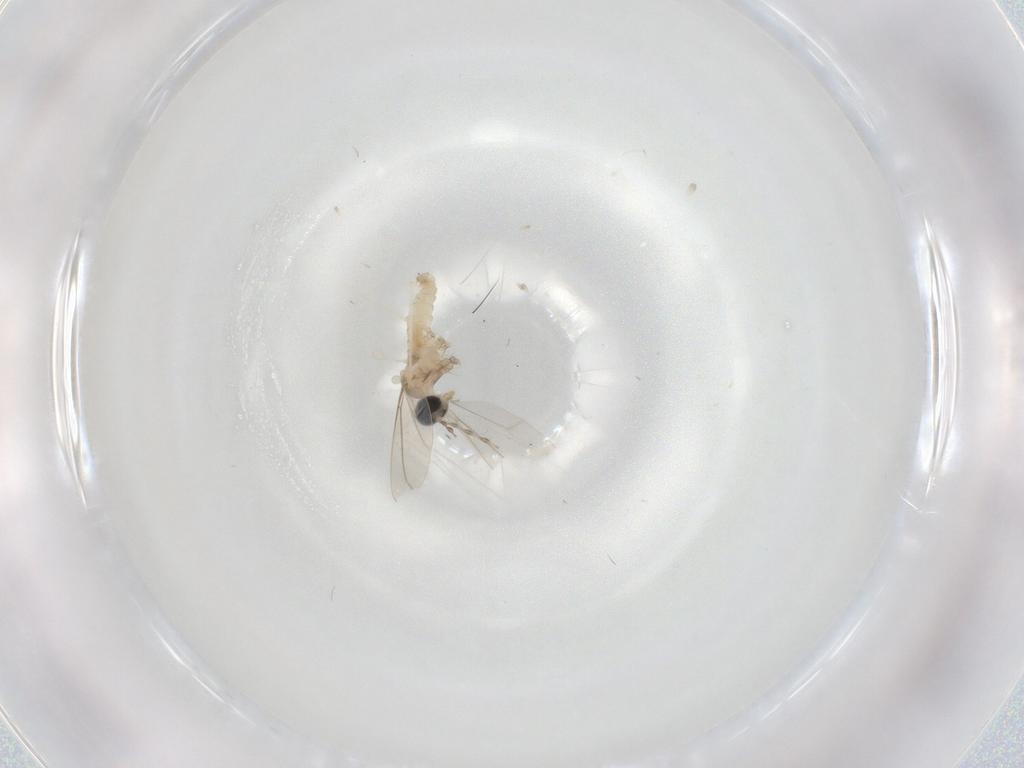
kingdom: Animalia
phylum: Arthropoda
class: Insecta
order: Diptera
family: Cecidomyiidae
